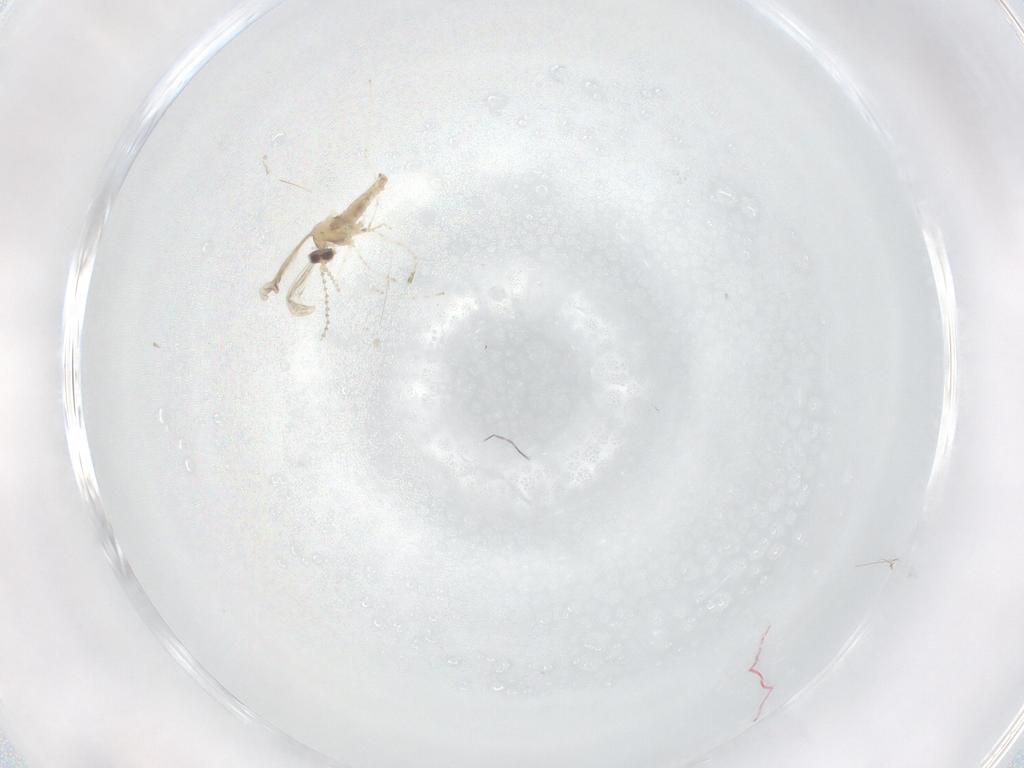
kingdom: Animalia
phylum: Arthropoda
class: Insecta
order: Diptera
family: Cecidomyiidae
